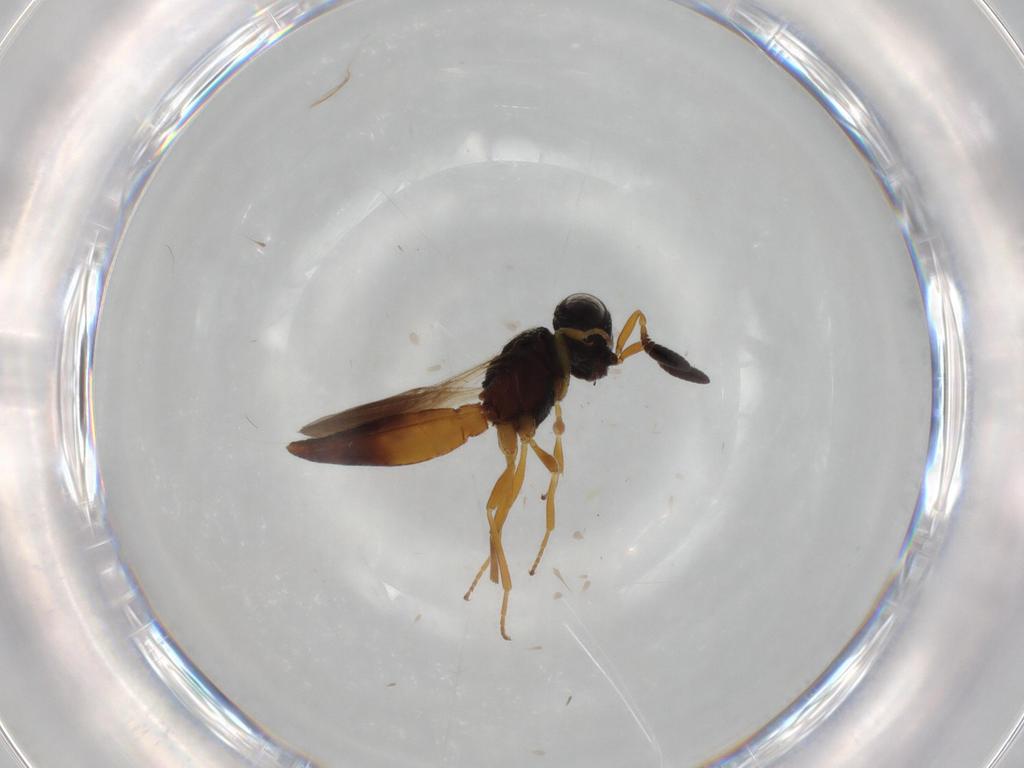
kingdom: Animalia
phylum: Arthropoda
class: Insecta
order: Hymenoptera
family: Scelionidae
